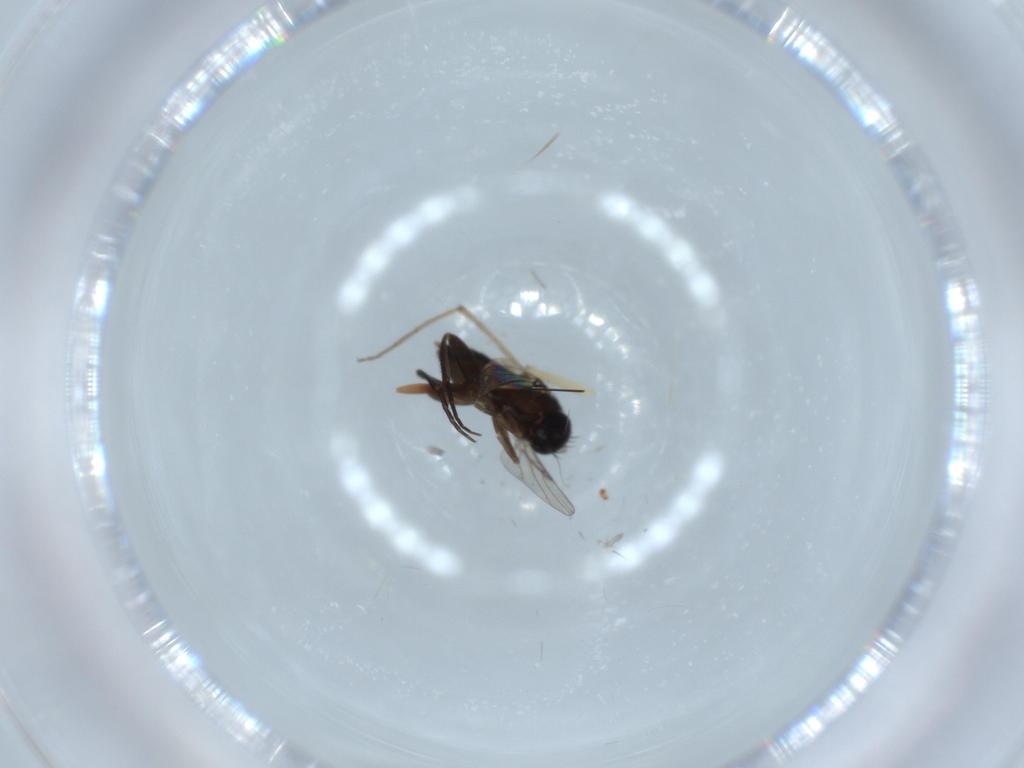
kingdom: Animalia
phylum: Arthropoda
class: Insecta
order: Diptera
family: Phoridae
